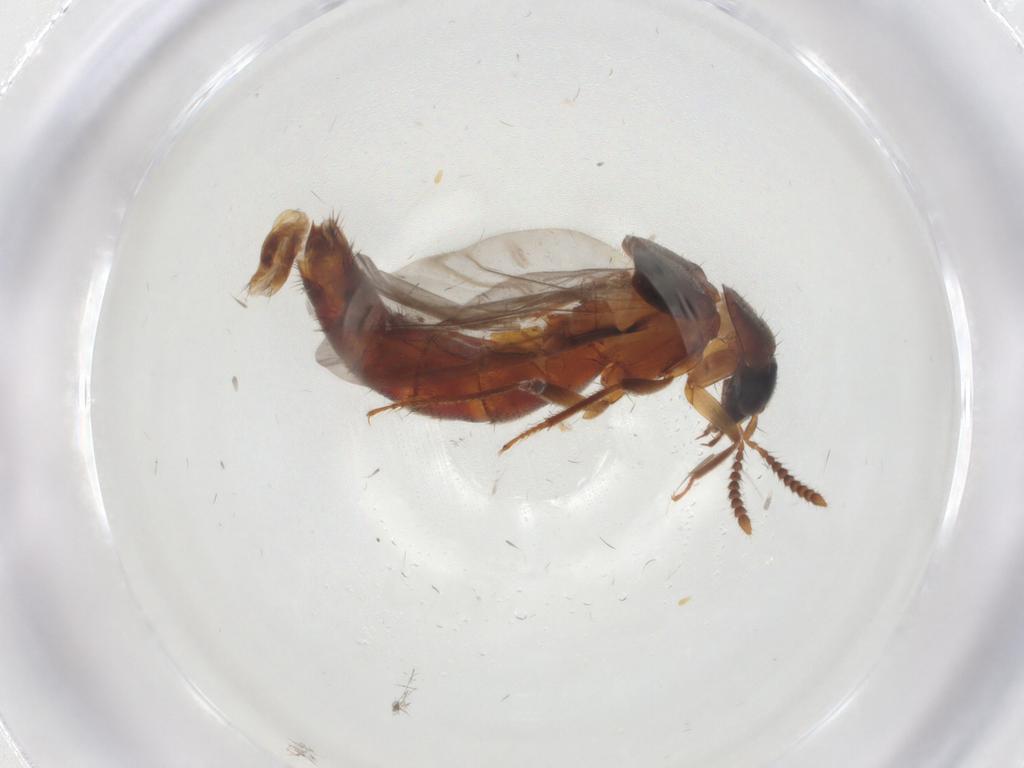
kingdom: Animalia
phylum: Arthropoda
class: Insecta
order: Coleoptera
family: Staphylinidae
